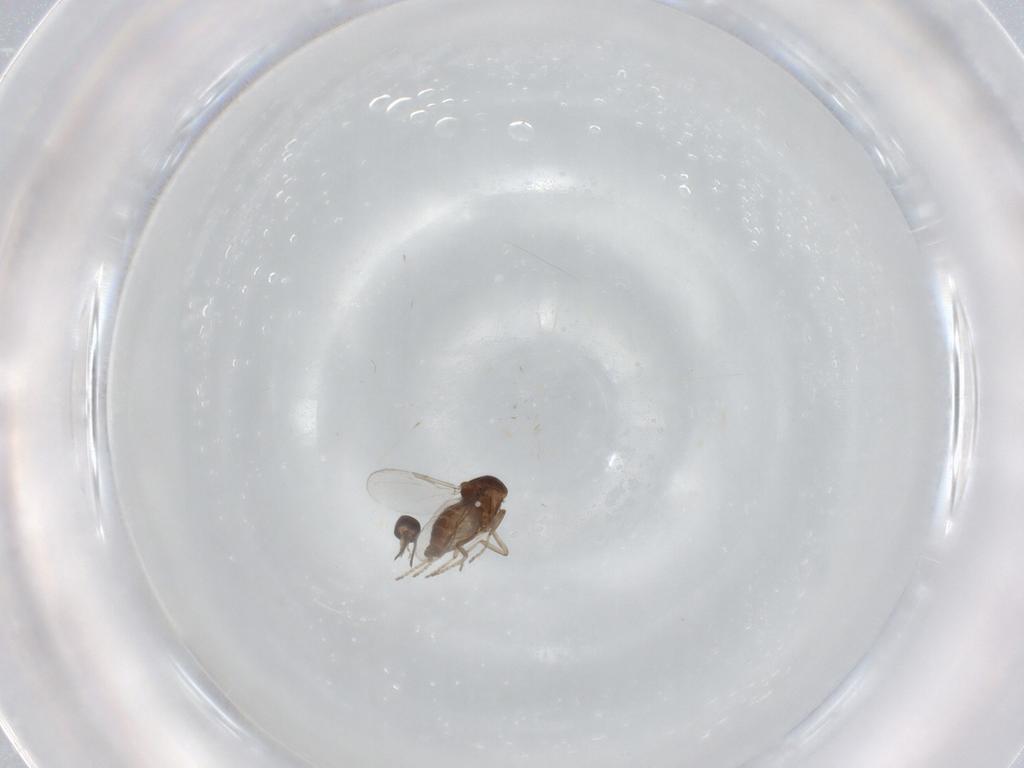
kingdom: Animalia
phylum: Arthropoda
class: Insecta
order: Diptera
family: Ceratopogonidae
